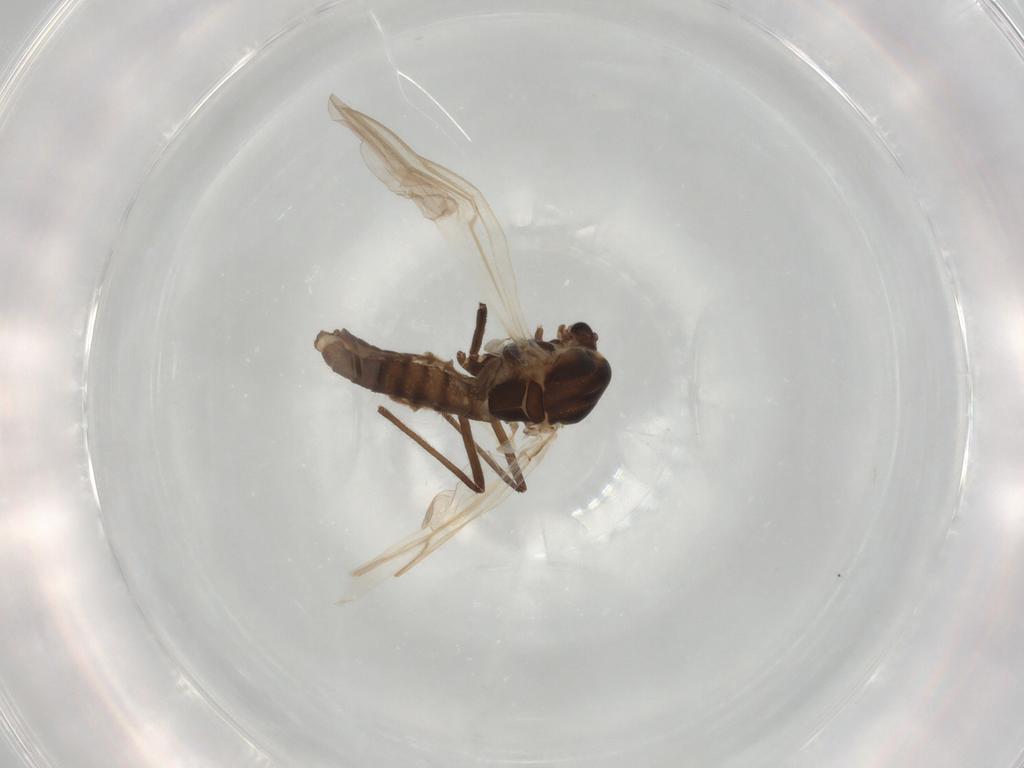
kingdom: Animalia
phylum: Arthropoda
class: Insecta
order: Diptera
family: Chironomidae
